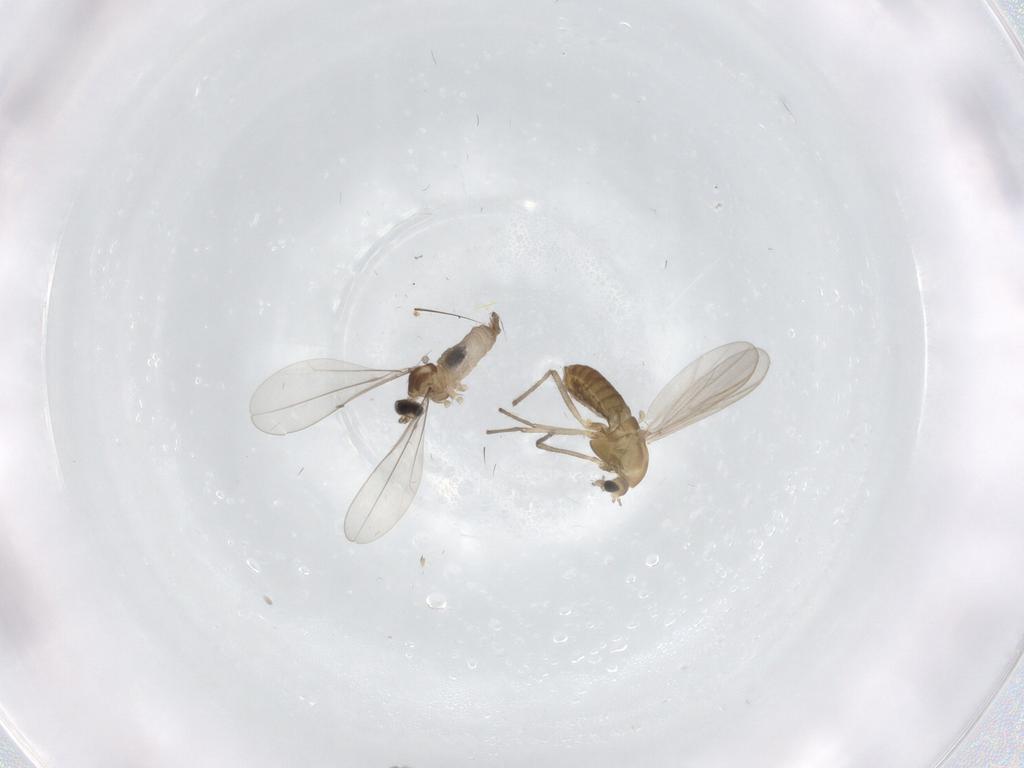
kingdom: Animalia
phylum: Arthropoda
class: Insecta
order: Diptera
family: Chironomidae
